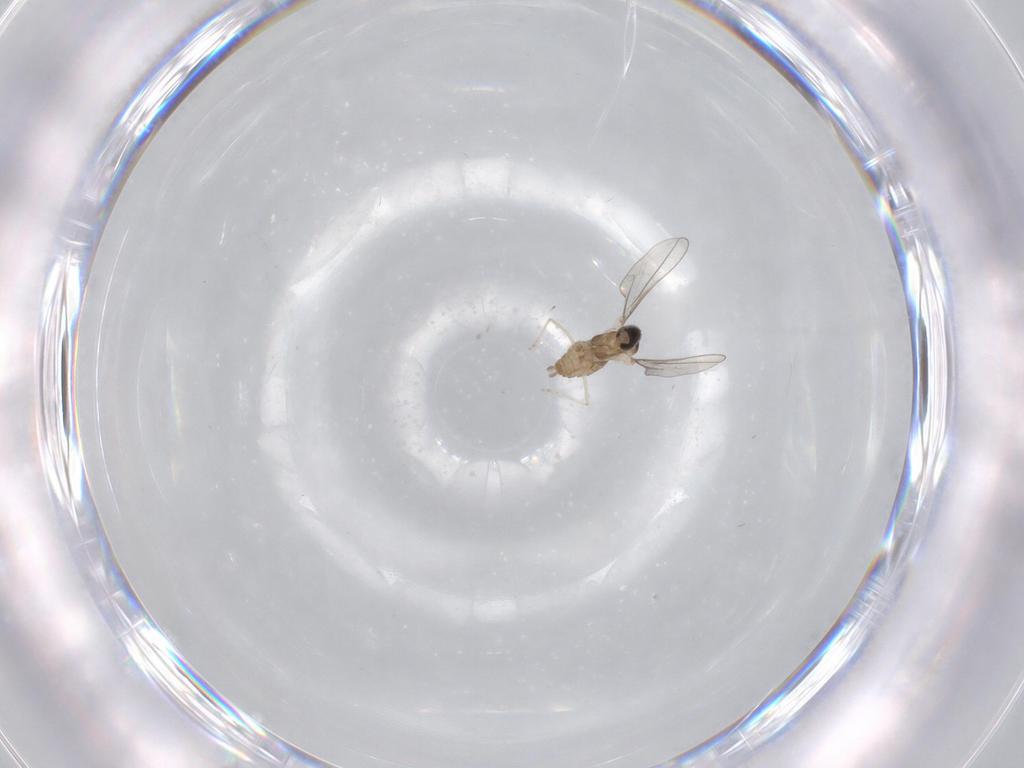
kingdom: Animalia
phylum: Arthropoda
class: Insecta
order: Diptera
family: Cecidomyiidae
